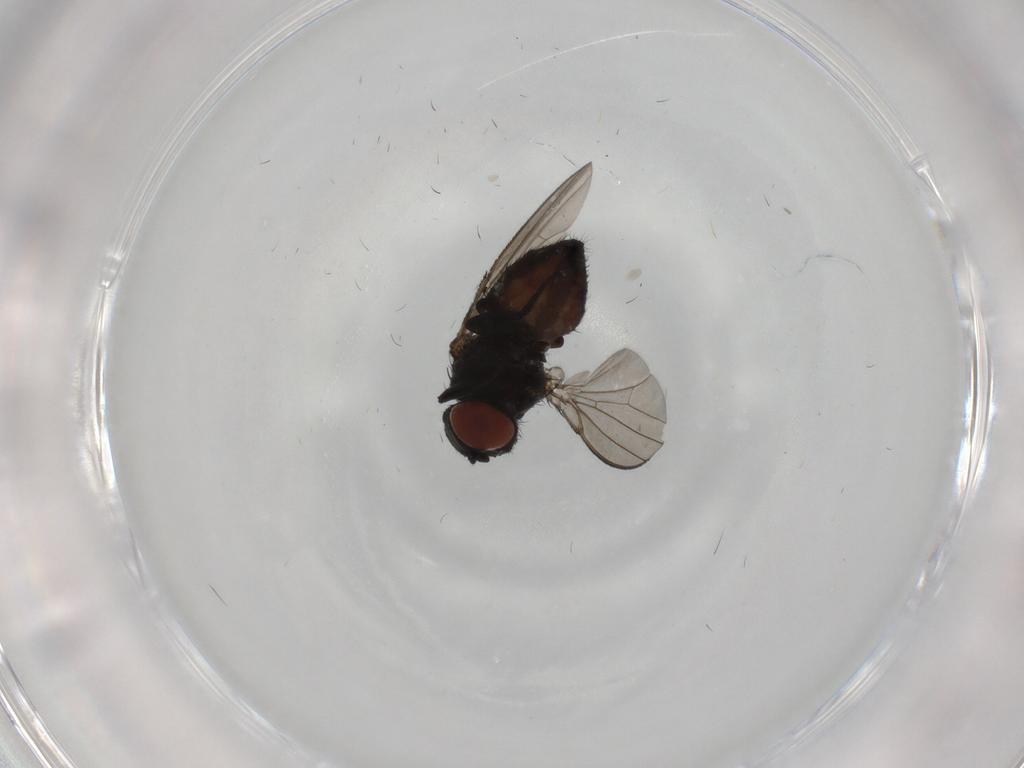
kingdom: Animalia
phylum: Arthropoda
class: Insecta
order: Diptera
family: Milichiidae
